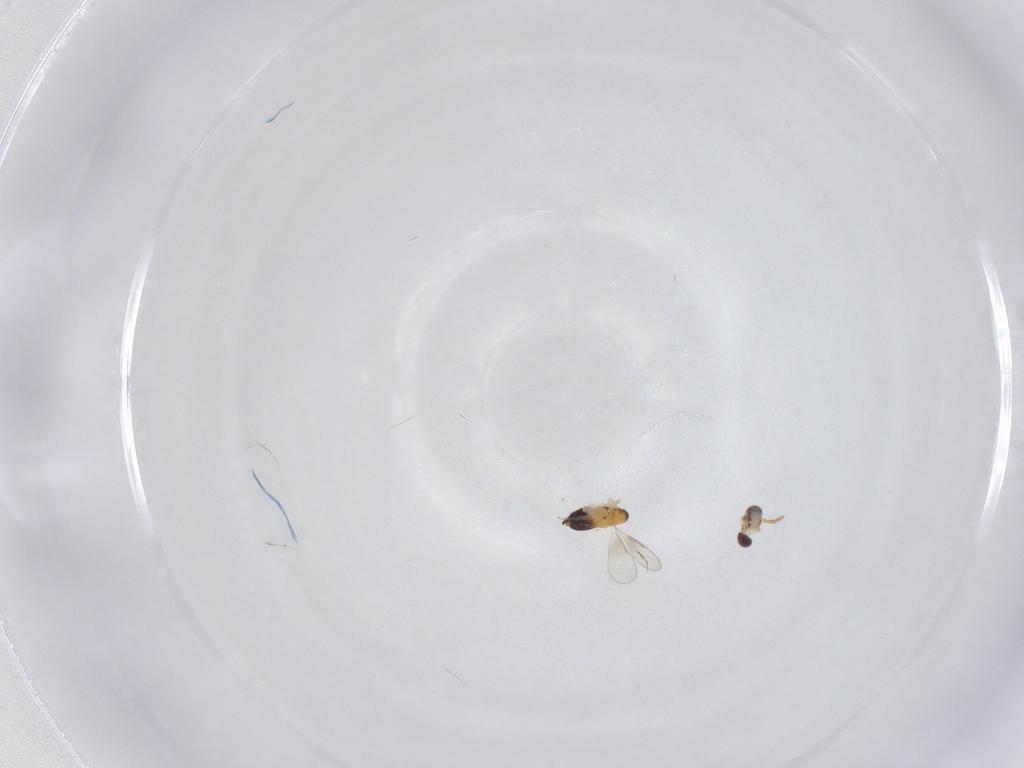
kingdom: Animalia
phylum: Arthropoda
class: Insecta
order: Hymenoptera
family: Aphelinidae
